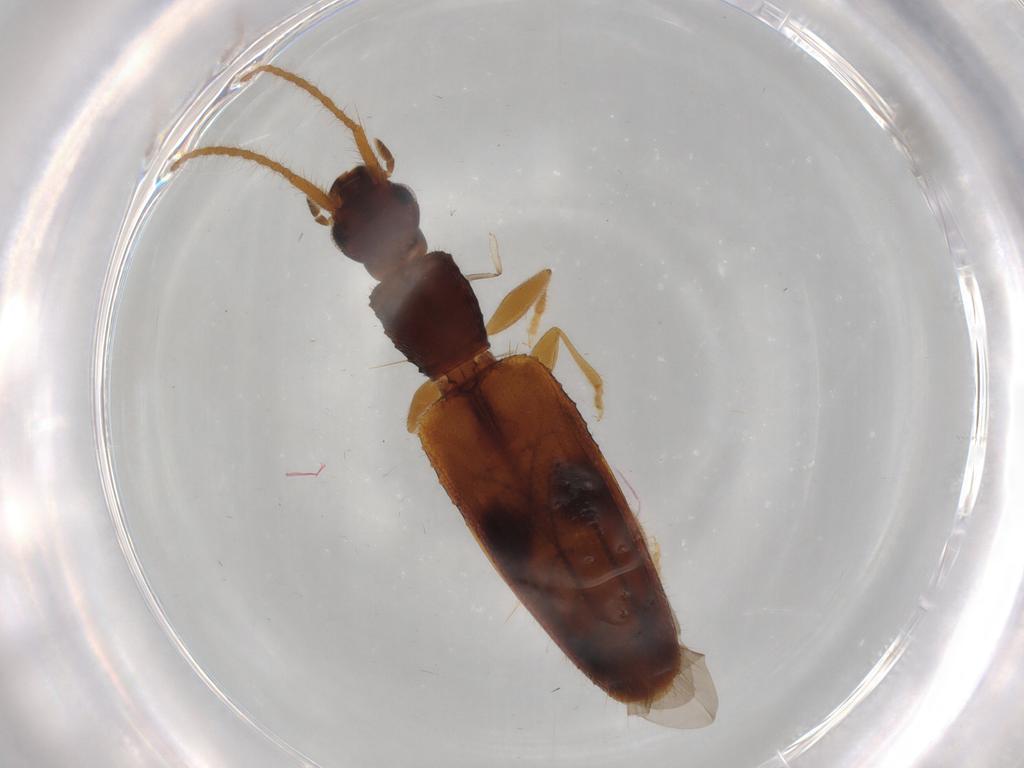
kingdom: Animalia
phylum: Arthropoda
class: Insecta
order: Coleoptera
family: Silvanidae
